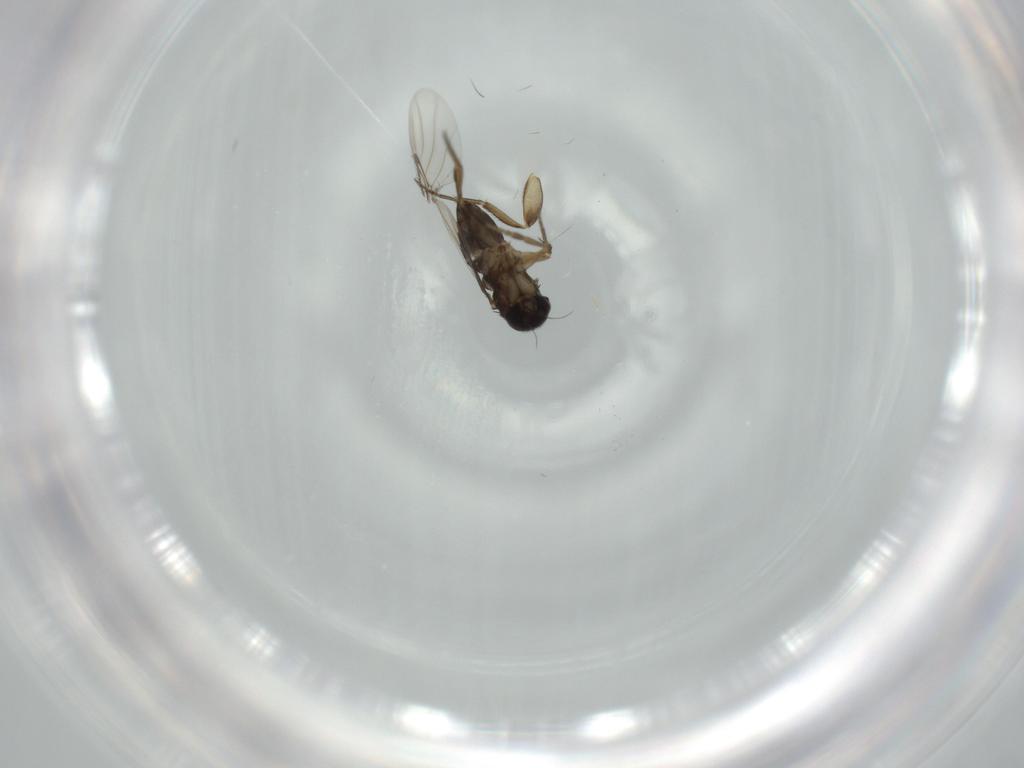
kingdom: Animalia
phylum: Arthropoda
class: Insecta
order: Diptera
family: Phoridae
